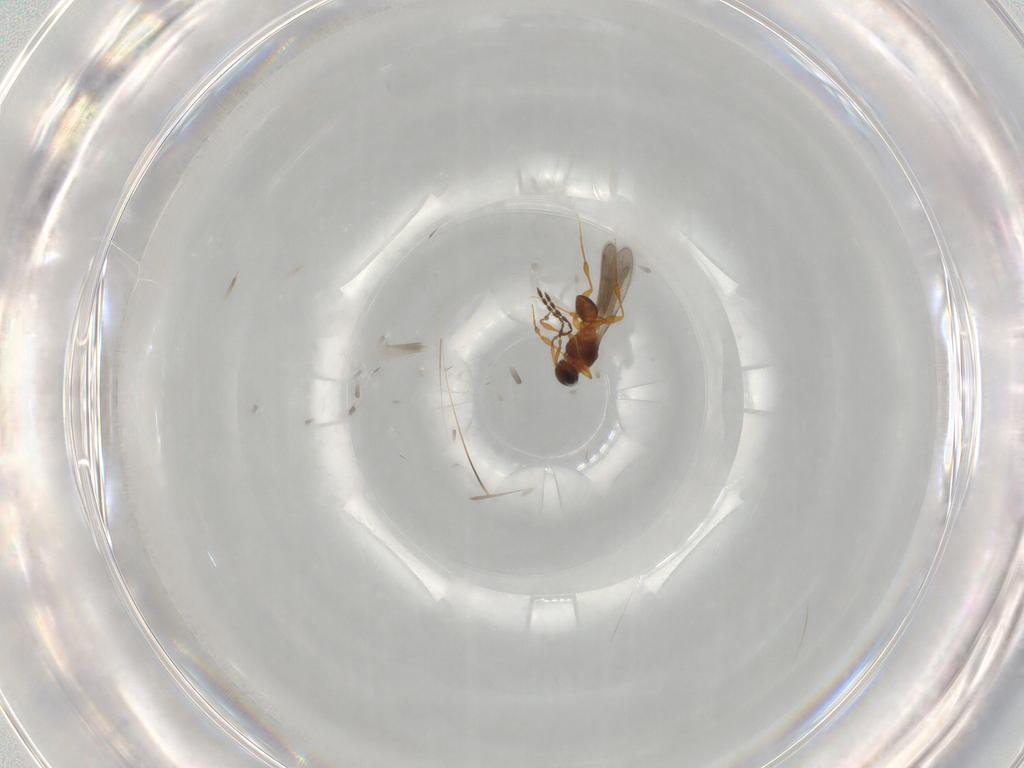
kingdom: Animalia
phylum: Arthropoda
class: Insecta
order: Hymenoptera
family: Platygastridae
